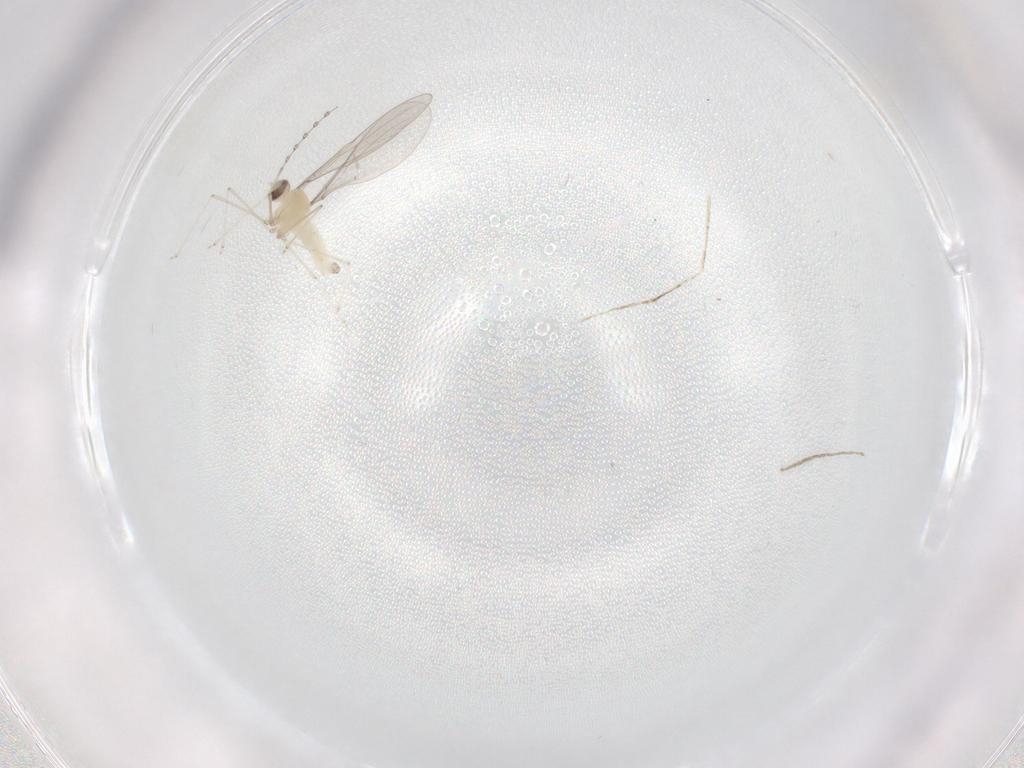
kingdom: Animalia
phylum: Arthropoda
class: Insecta
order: Diptera
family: Cecidomyiidae
